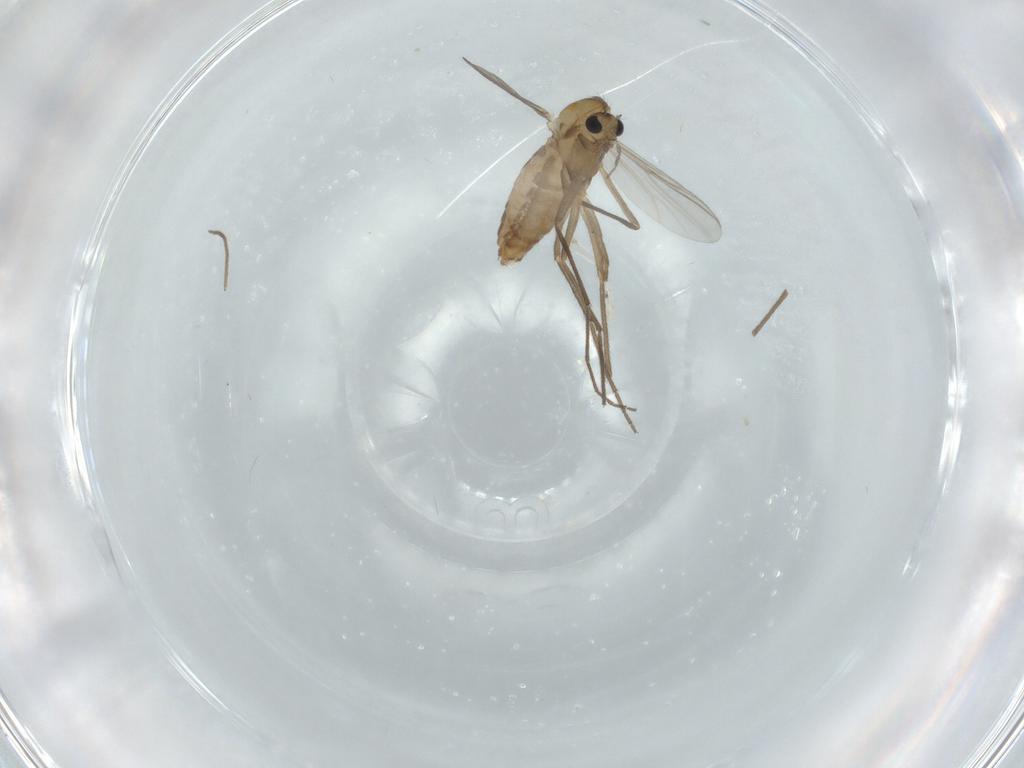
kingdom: Animalia
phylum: Arthropoda
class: Insecta
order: Diptera
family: Chironomidae
